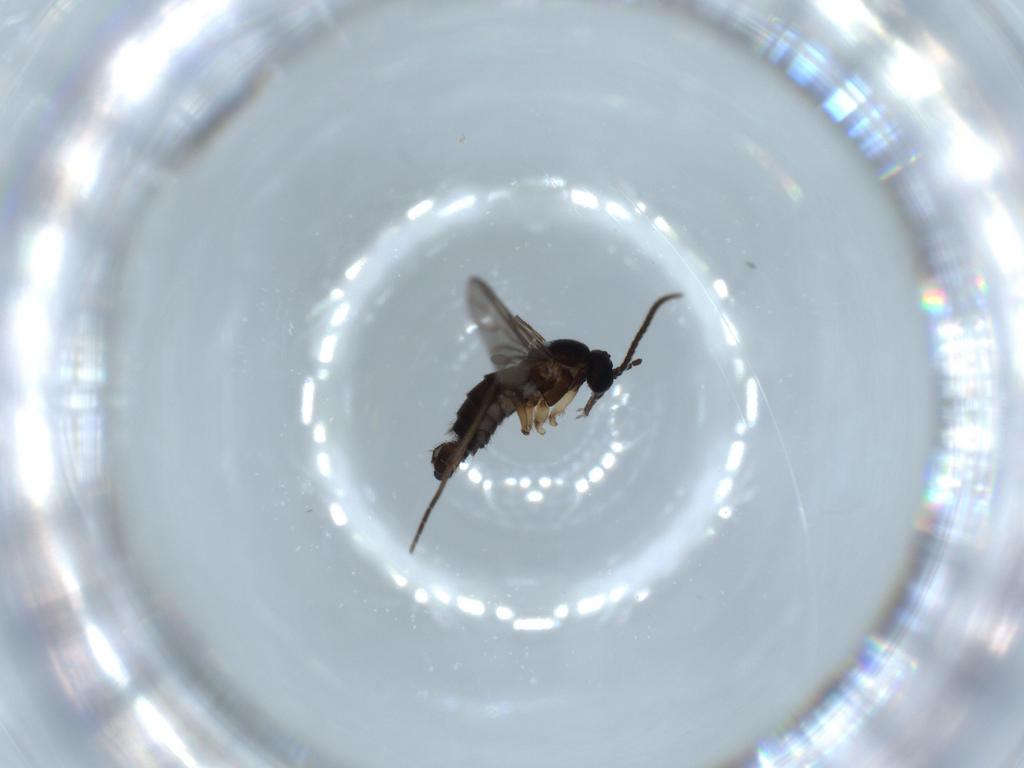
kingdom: Animalia
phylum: Arthropoda
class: Insecta
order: Diptera
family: Sciaridae
